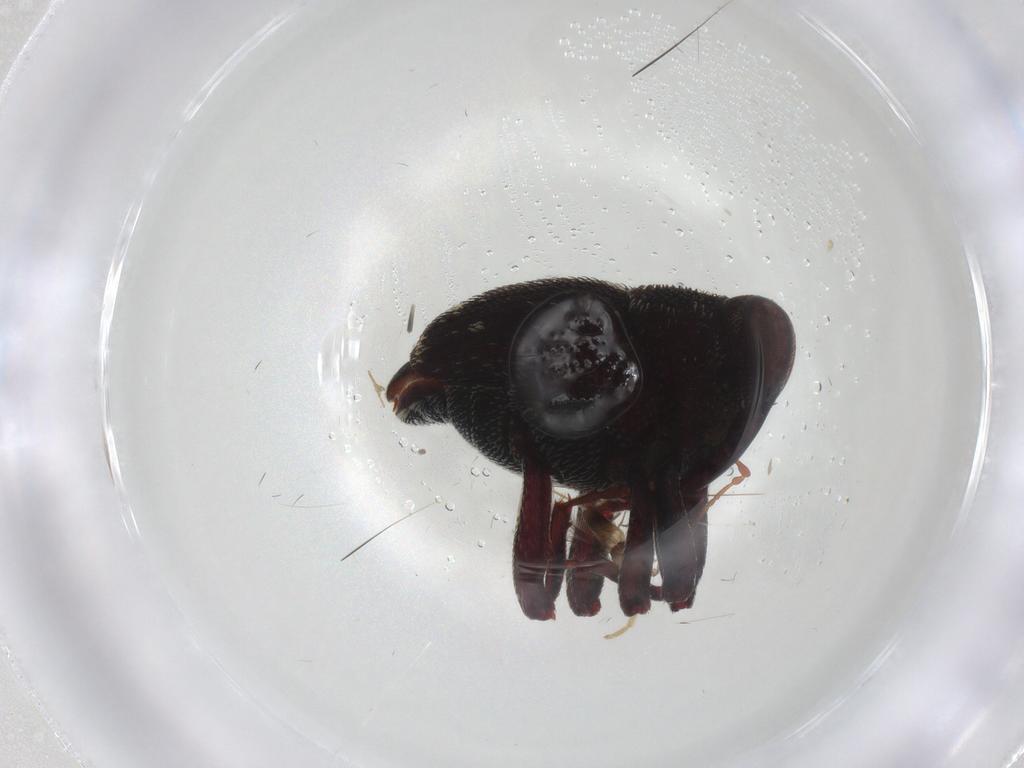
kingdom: Animalia
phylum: Arthropoda
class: Insecta
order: Coleoptera
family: Curculionidae
